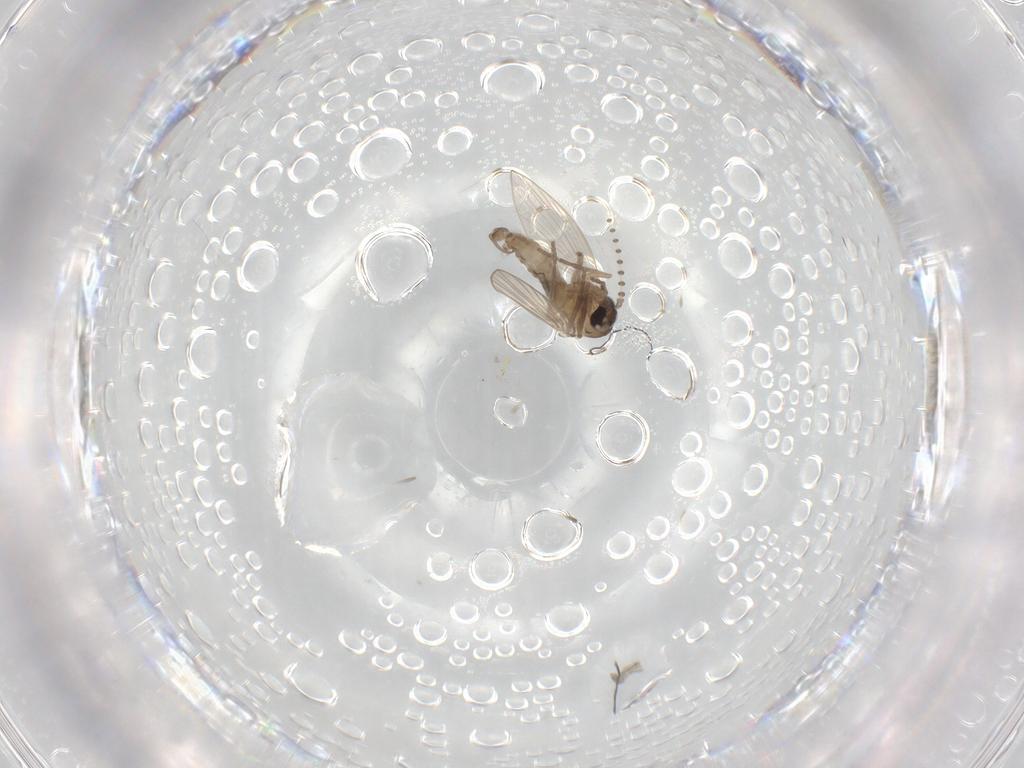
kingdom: Animalia
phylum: Arthropoda
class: Insecta
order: Diptera
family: Psychodidae
